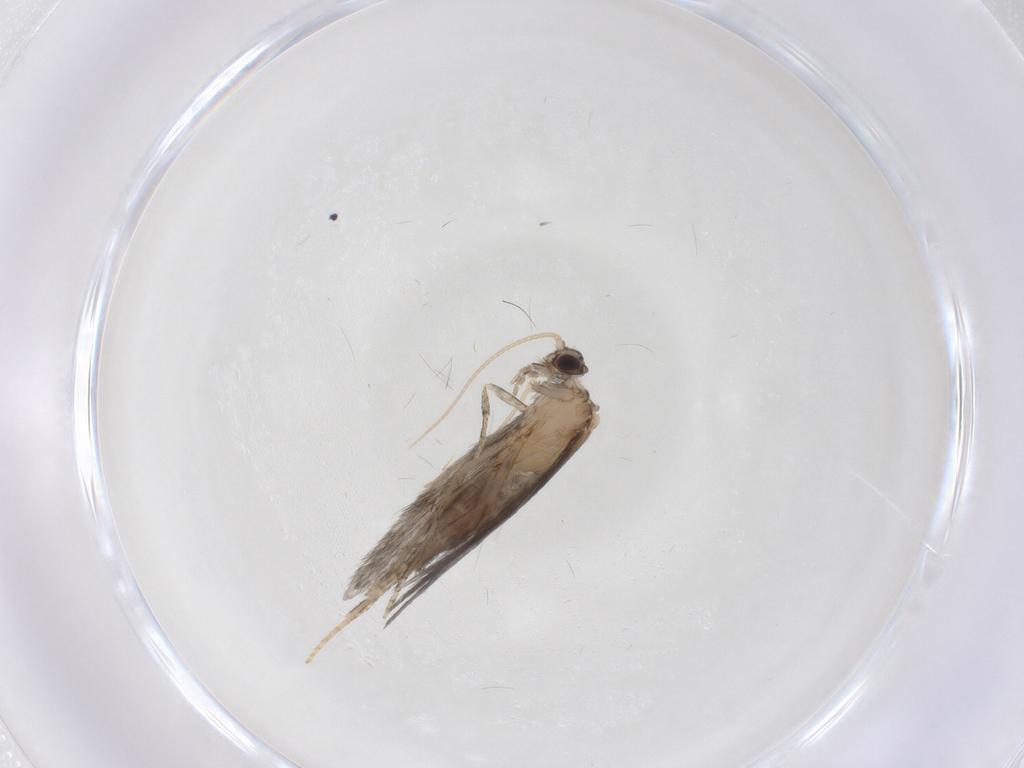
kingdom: Animalia
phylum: Arthropoda
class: Insecta
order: Trichoptera
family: Hydroptilidae
